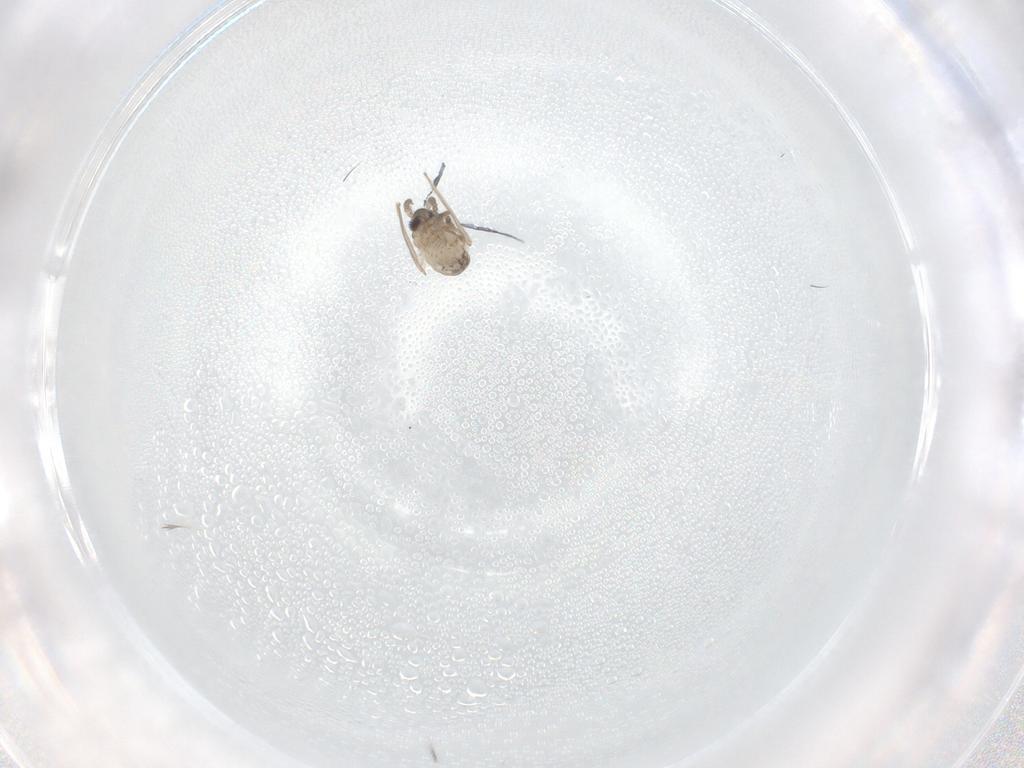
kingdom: Animalia
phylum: Arthropoda
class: Insecta
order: Diptera
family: Psychodidae
